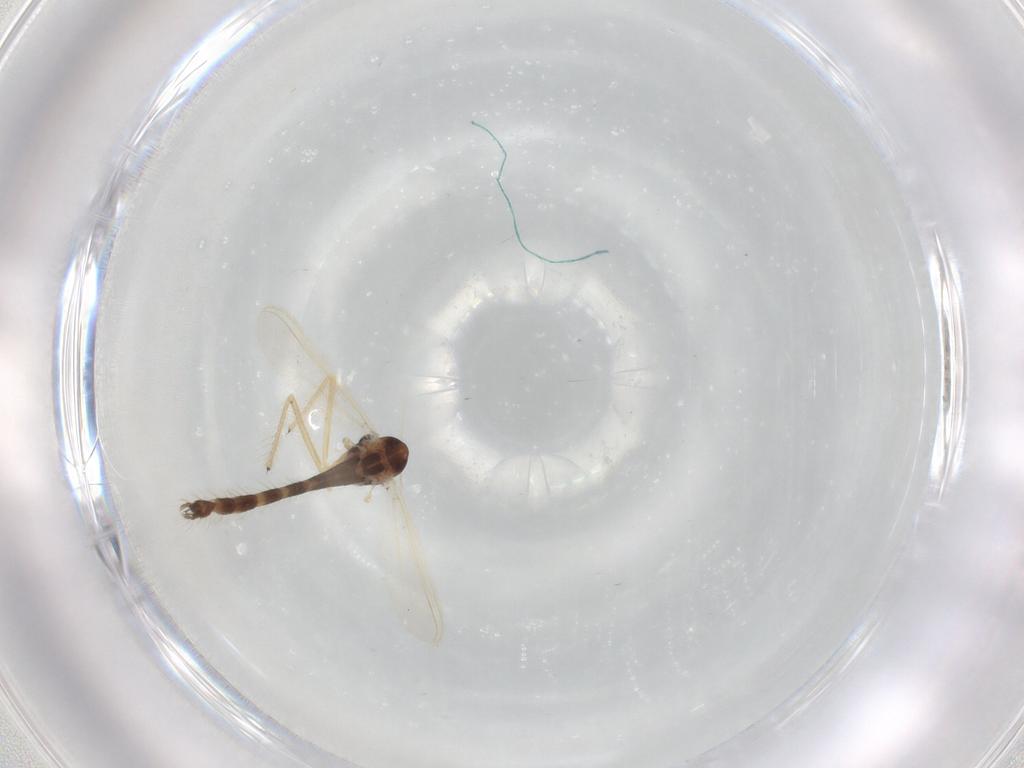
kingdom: Animalia
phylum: Arthropoda
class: Insecta
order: Diptera
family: Chironomidae
